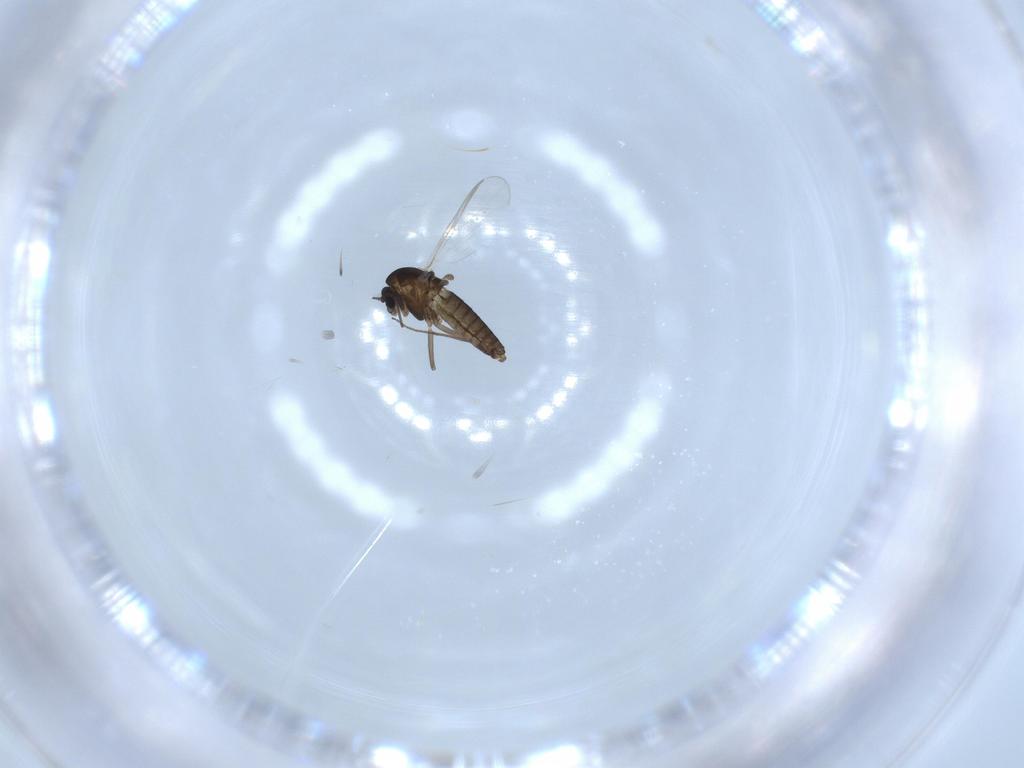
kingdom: Animalia
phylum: Arthropoda
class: Insecta
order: Diptera
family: Chironomidae
